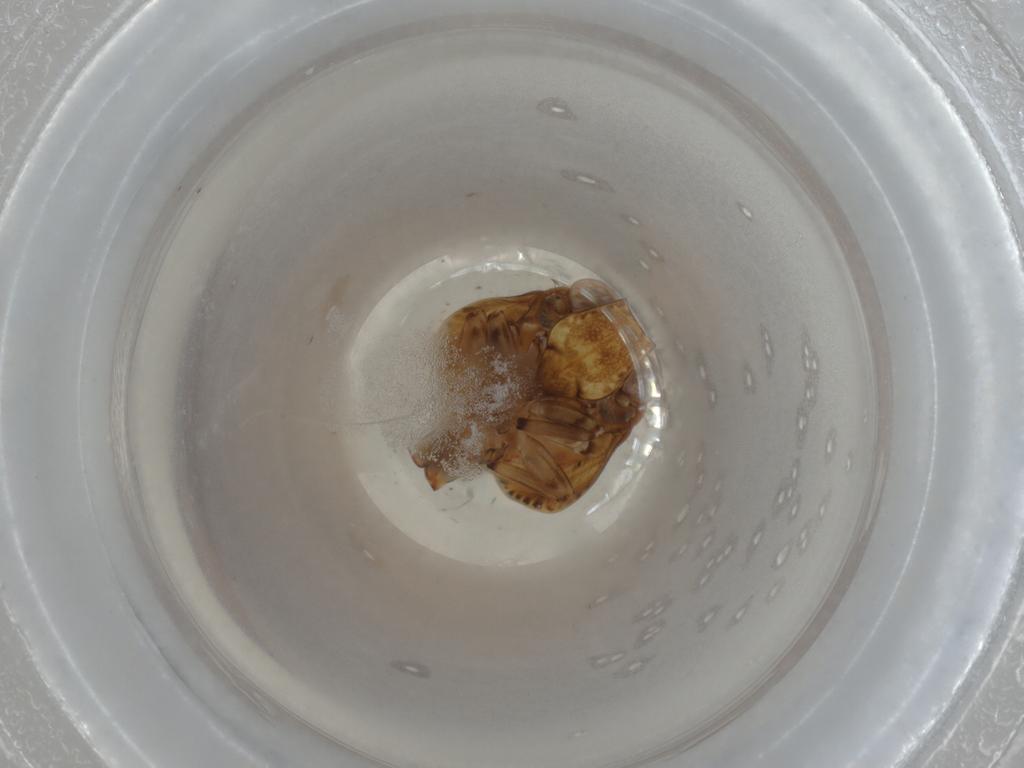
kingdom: Animalia
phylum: Arthropoda
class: Insecta
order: Hemiptera
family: Issidae
